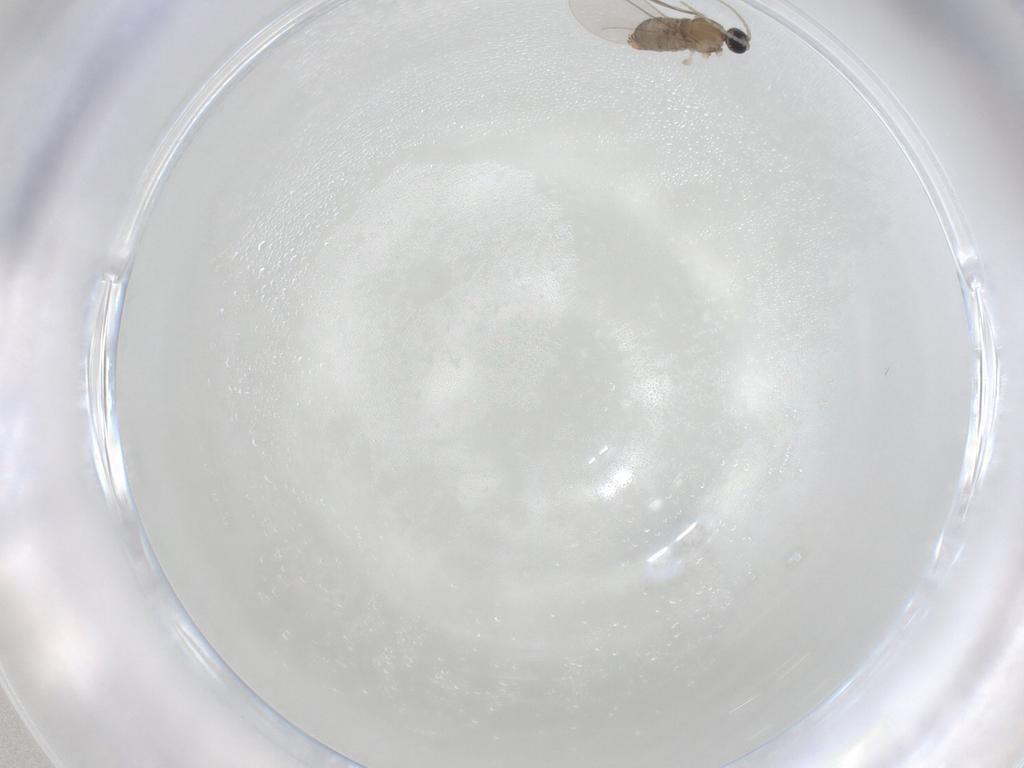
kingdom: Animalia
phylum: Arthropoda
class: Insecta
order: Diptera
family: Cecidomyiidae
